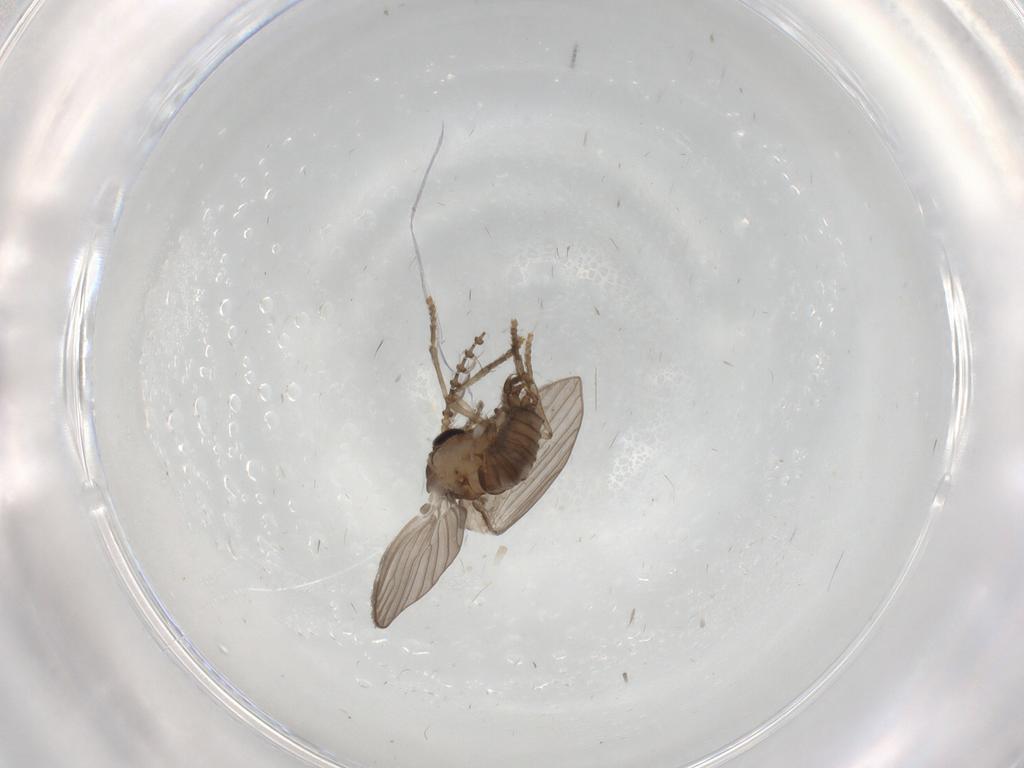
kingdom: Animalia
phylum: Arthropoda
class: Insecta
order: Diptera
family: Psychodidae
